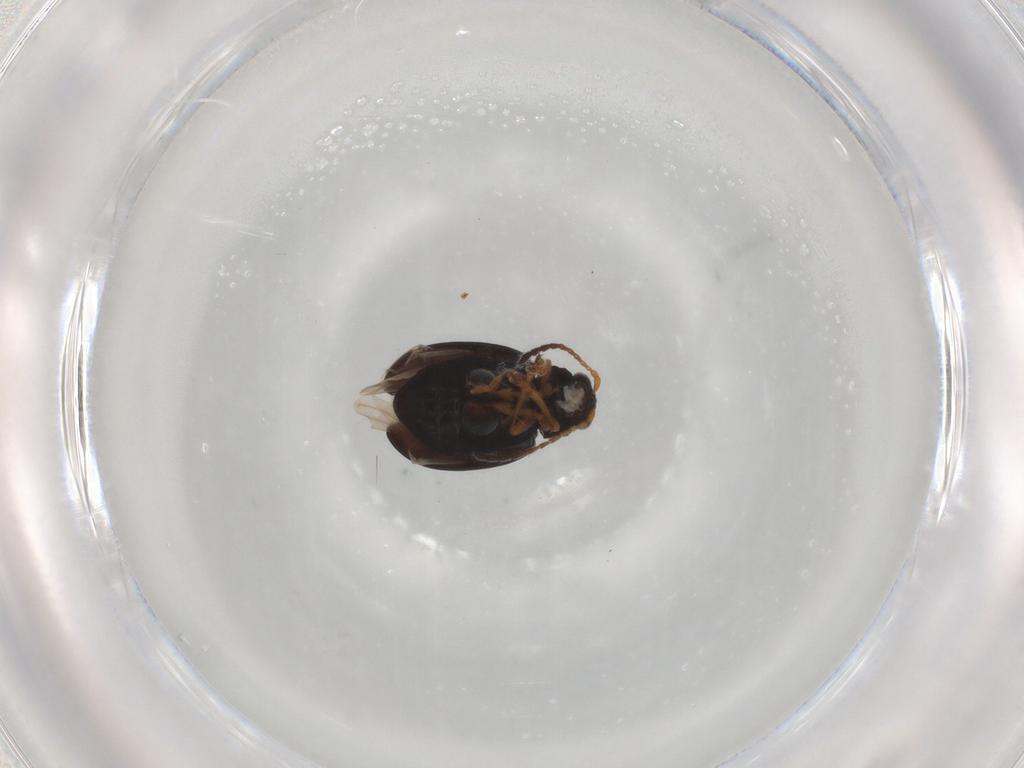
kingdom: Animalia
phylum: Arthropoda
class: Insecta
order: Coleoptera
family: Chrysomelidae
